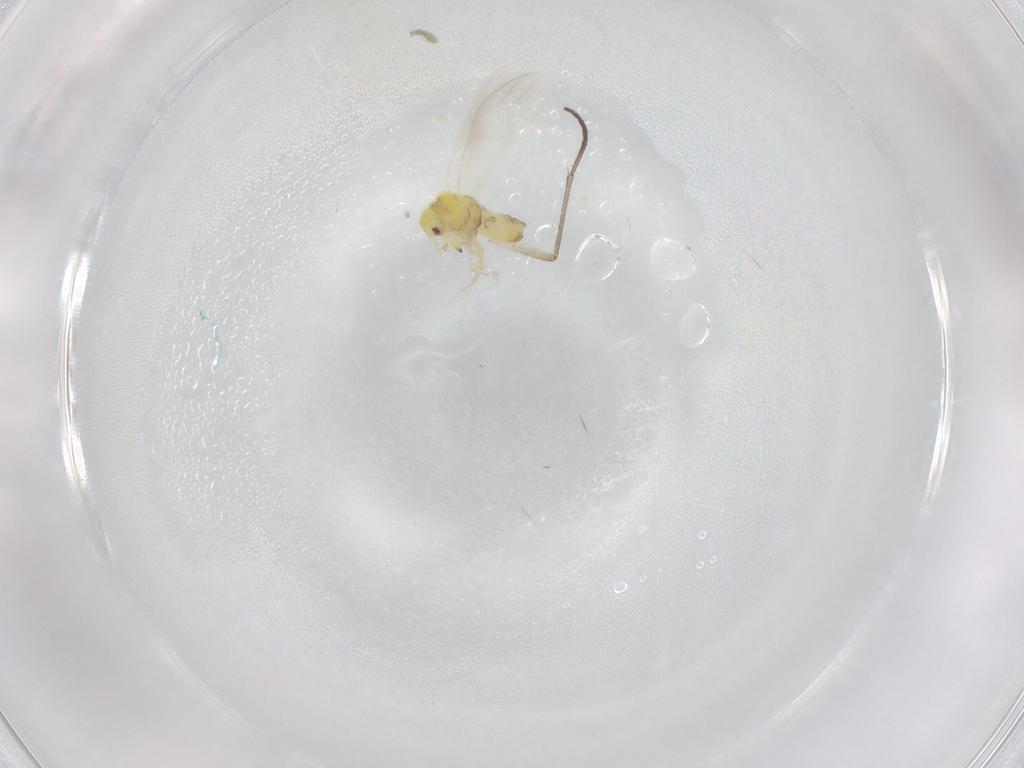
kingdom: Animalia
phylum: Arthropoda
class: Insecta
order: Hemiptera
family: Aleyrodidae
